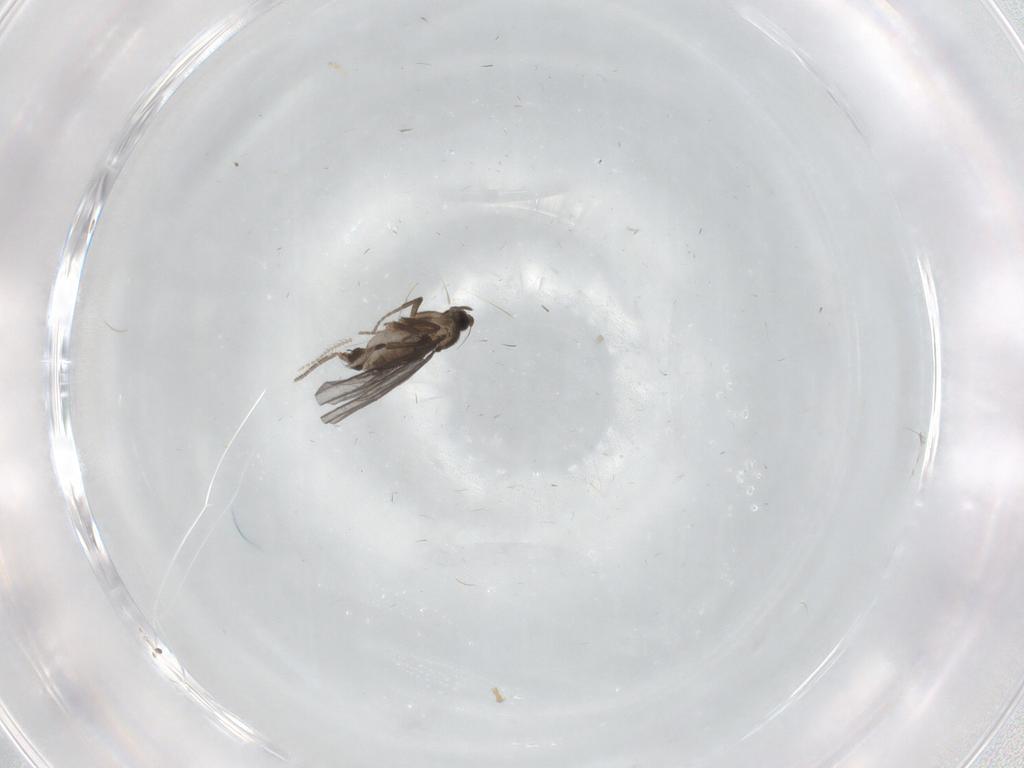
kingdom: Animalia
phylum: Arthropoda
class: Insecta
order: Diptera
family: Phoridae
